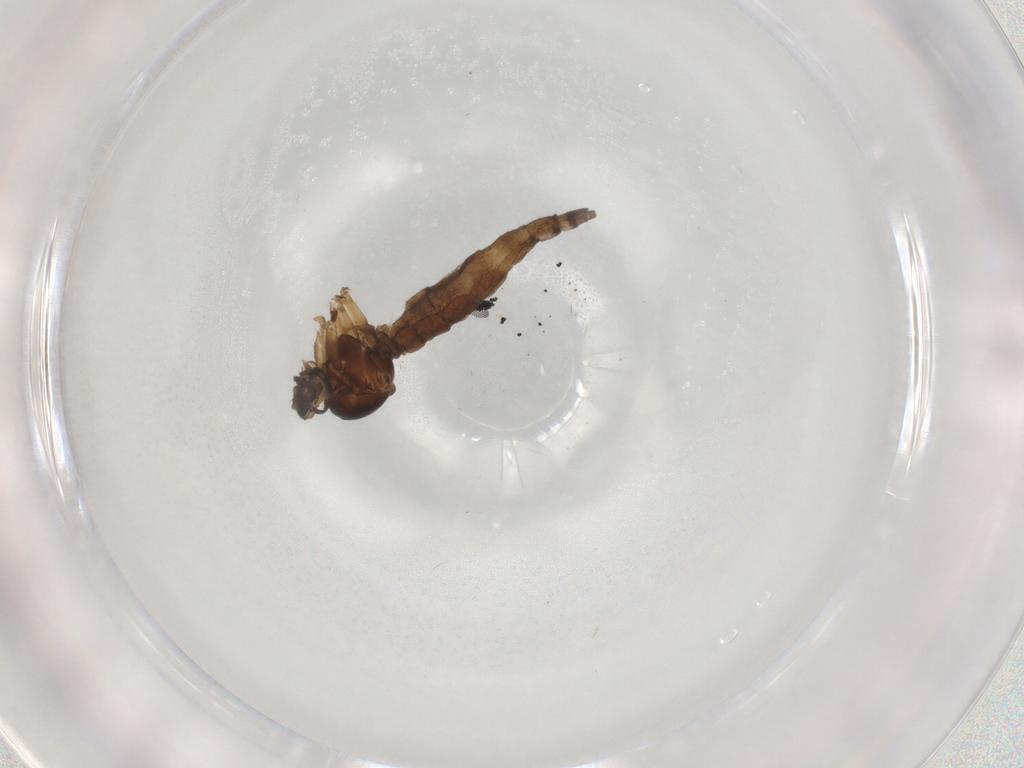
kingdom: Animalia
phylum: Arthropoda
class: Insecta
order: Diptera
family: Sciaridae
